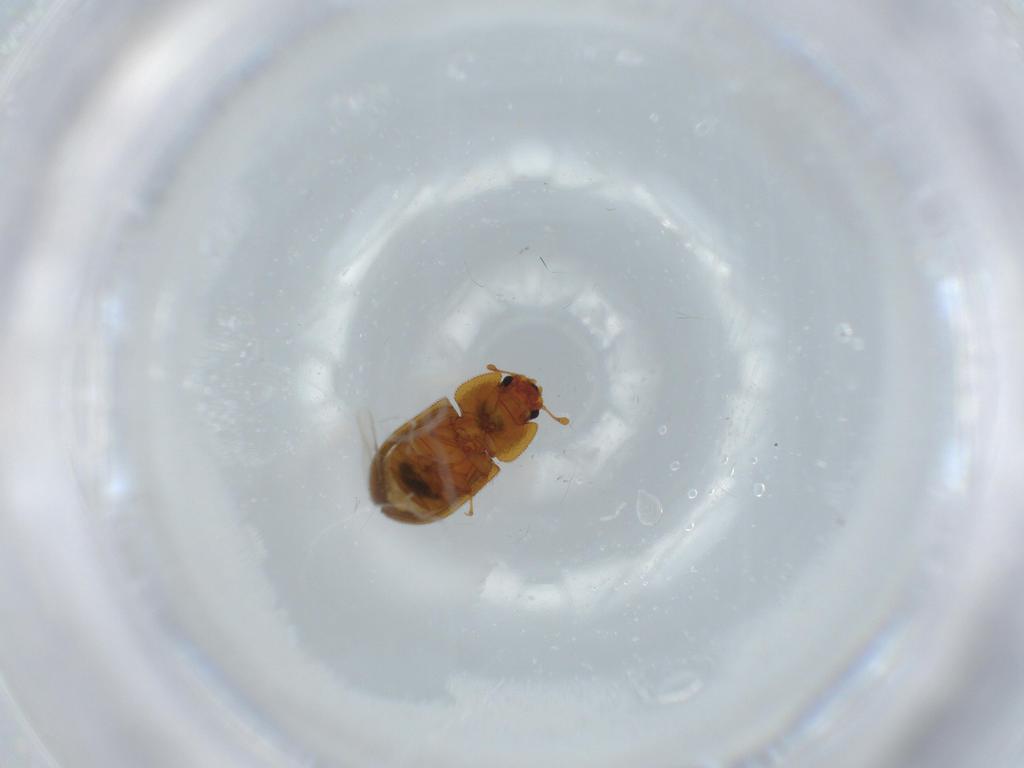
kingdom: Animalia
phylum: Arthropoda
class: Insecta
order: Coleoptera
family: Zopheridae
